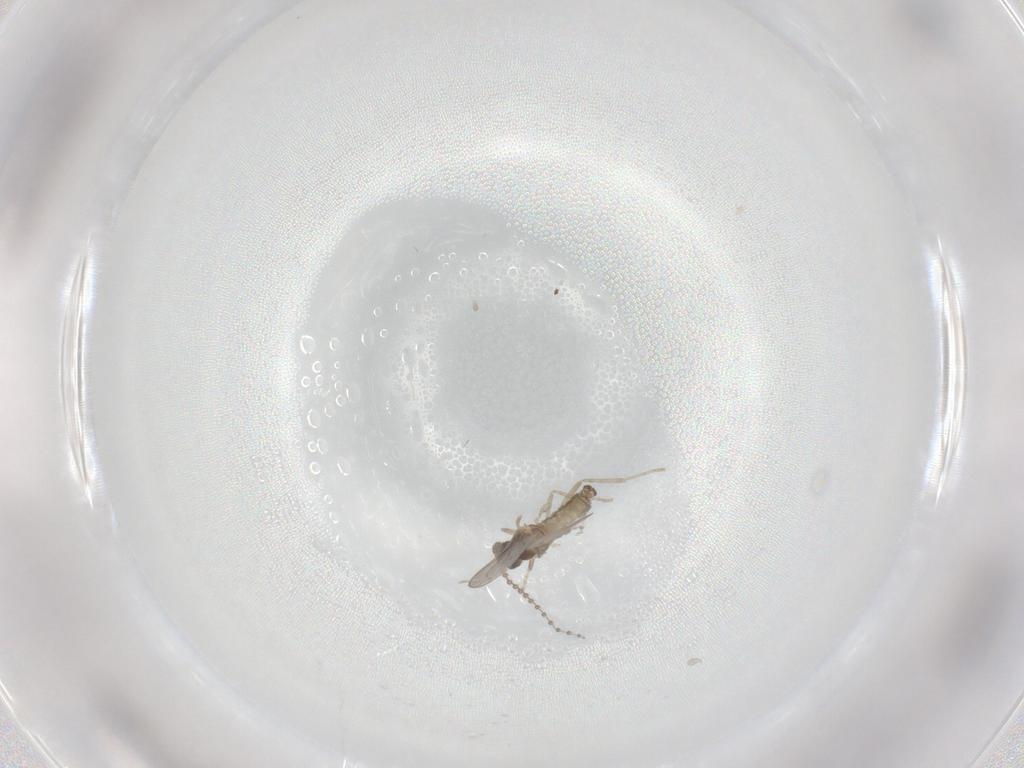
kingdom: Animalia
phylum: Arthropoda
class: Insecta
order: Diptera
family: Cecidomyiidae
